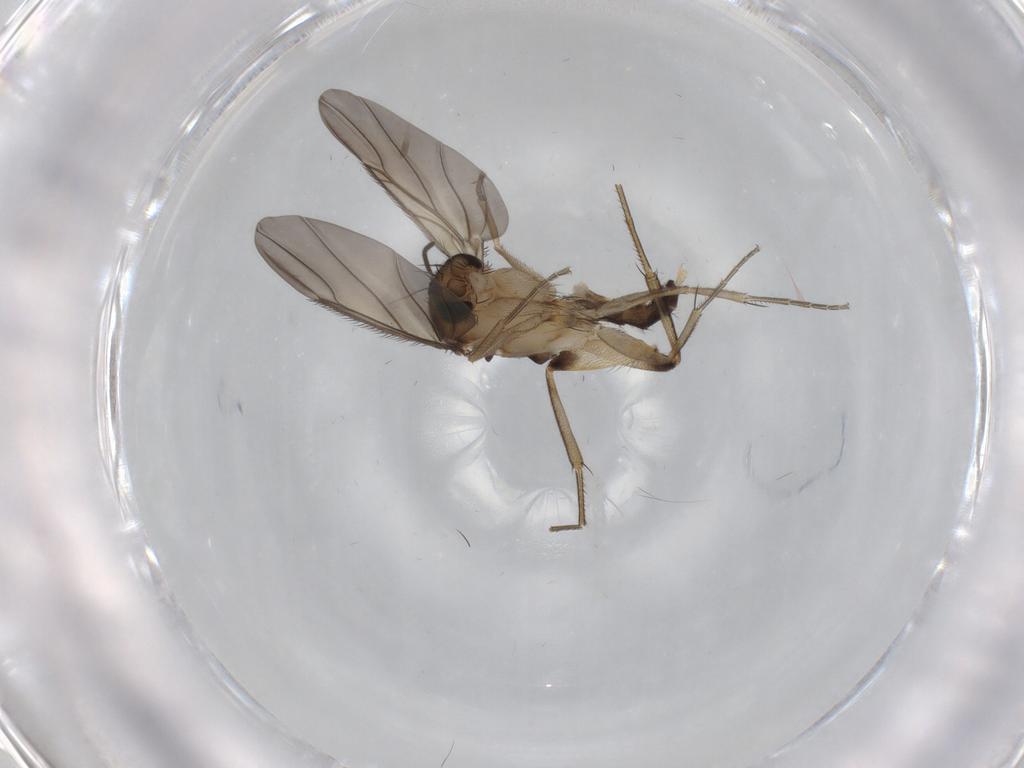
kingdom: Animalia
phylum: Arthropoda
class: Insecta
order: Diptera
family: Phoridae
